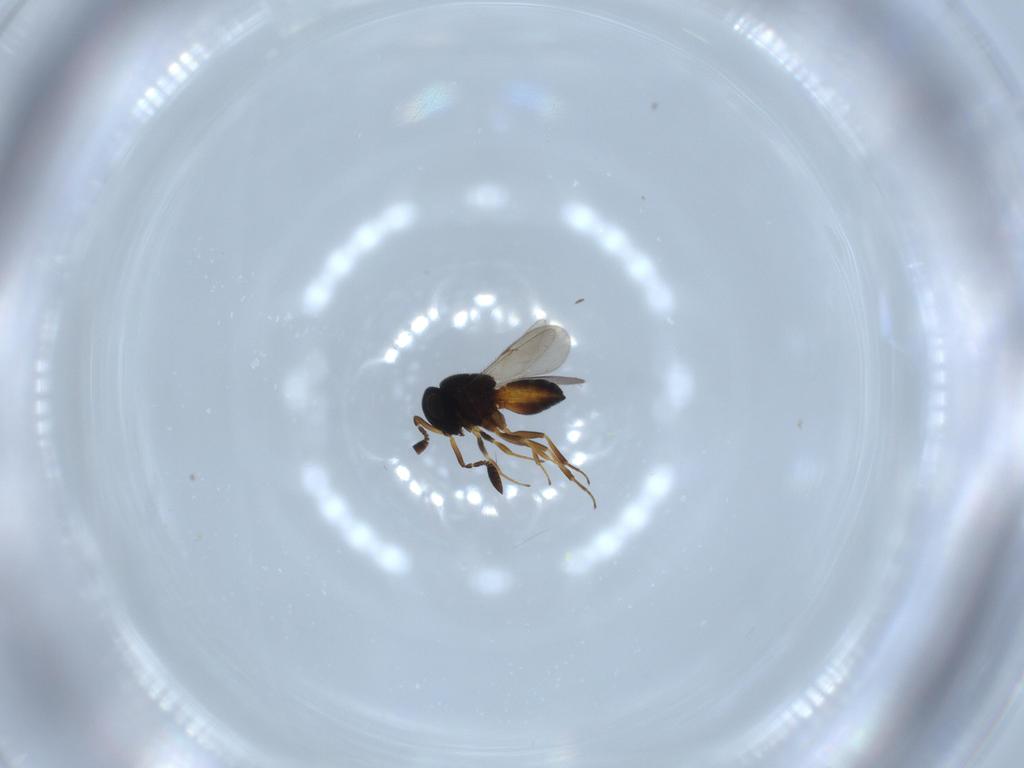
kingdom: Animalia
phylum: Arthropoda
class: Insecta
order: Hymenoptera
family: Scelionidae
